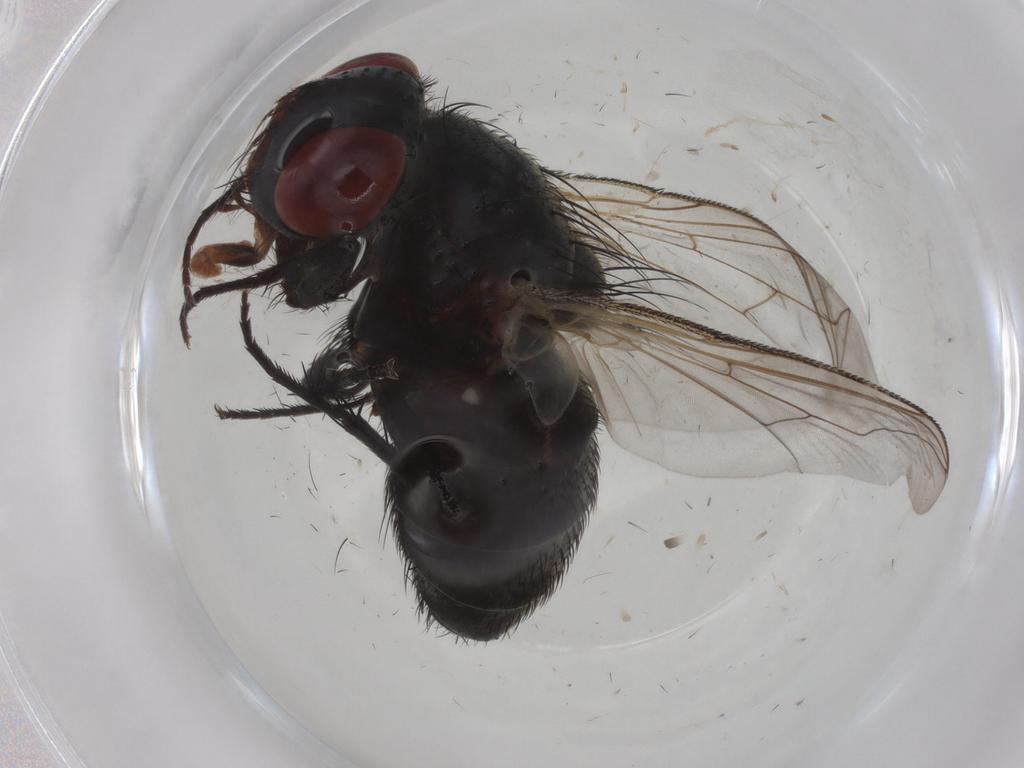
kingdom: Animalia
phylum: Arthropoda
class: Insecta
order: Diptera
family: Sarcophagidae
